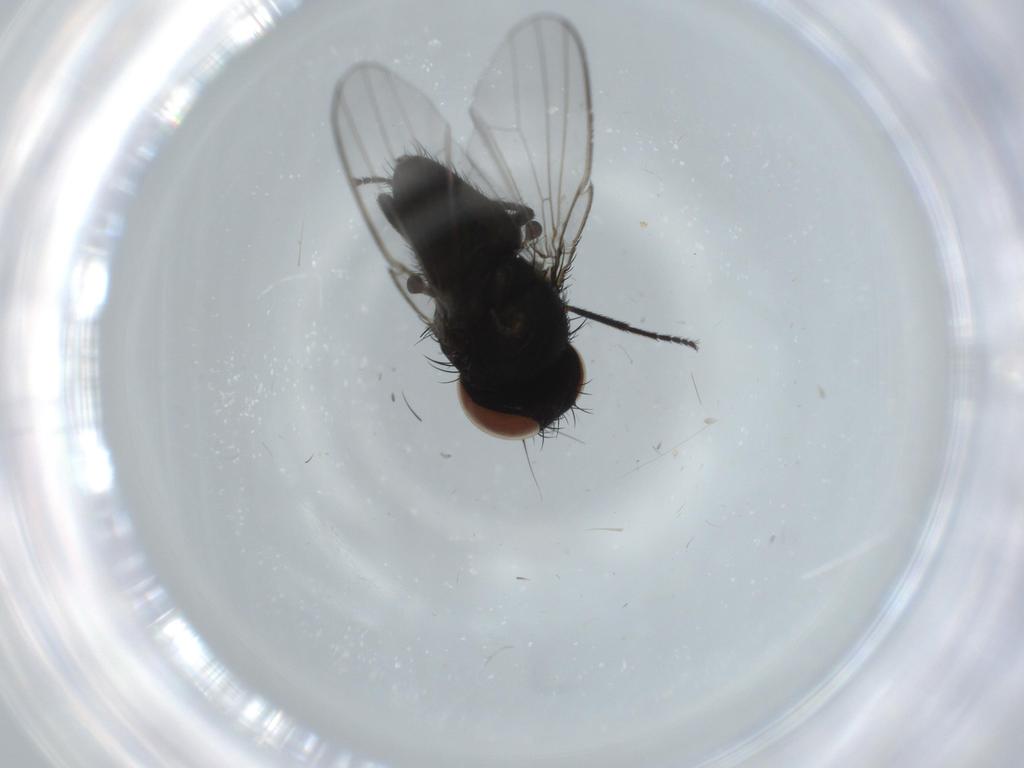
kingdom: Animalia
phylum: Arthropoda
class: Insecta
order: Diptera
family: Milichiidae
